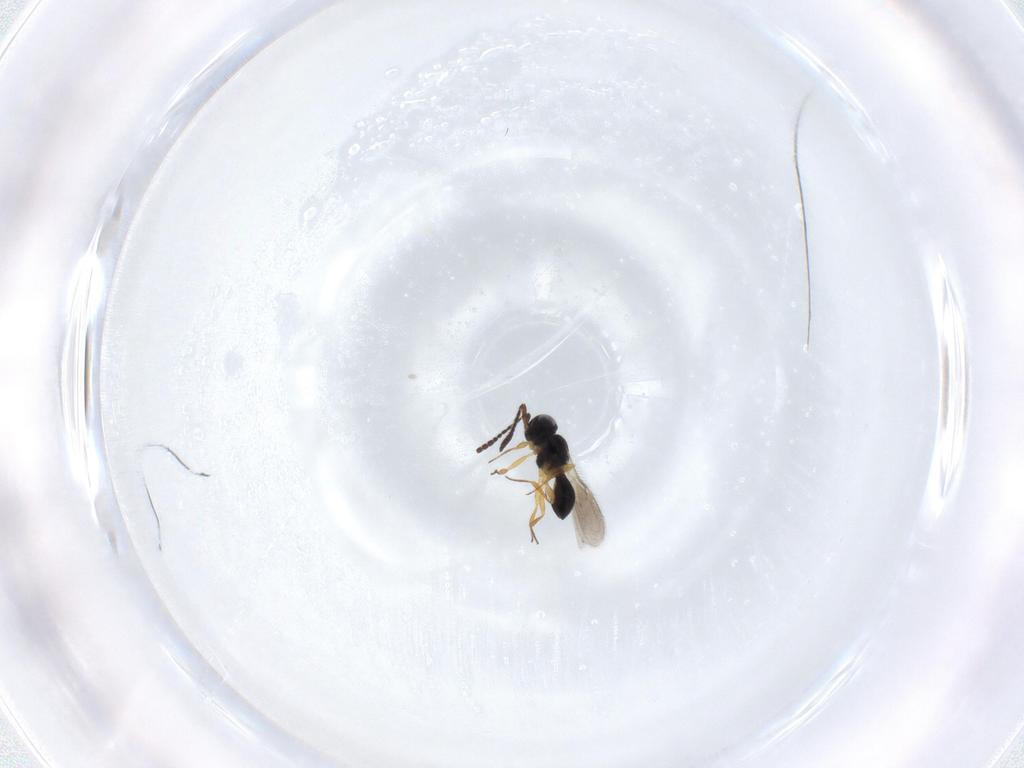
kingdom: Animalia
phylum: Arthropoda
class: Insecta
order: Hymenoptera
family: Scelionidae
